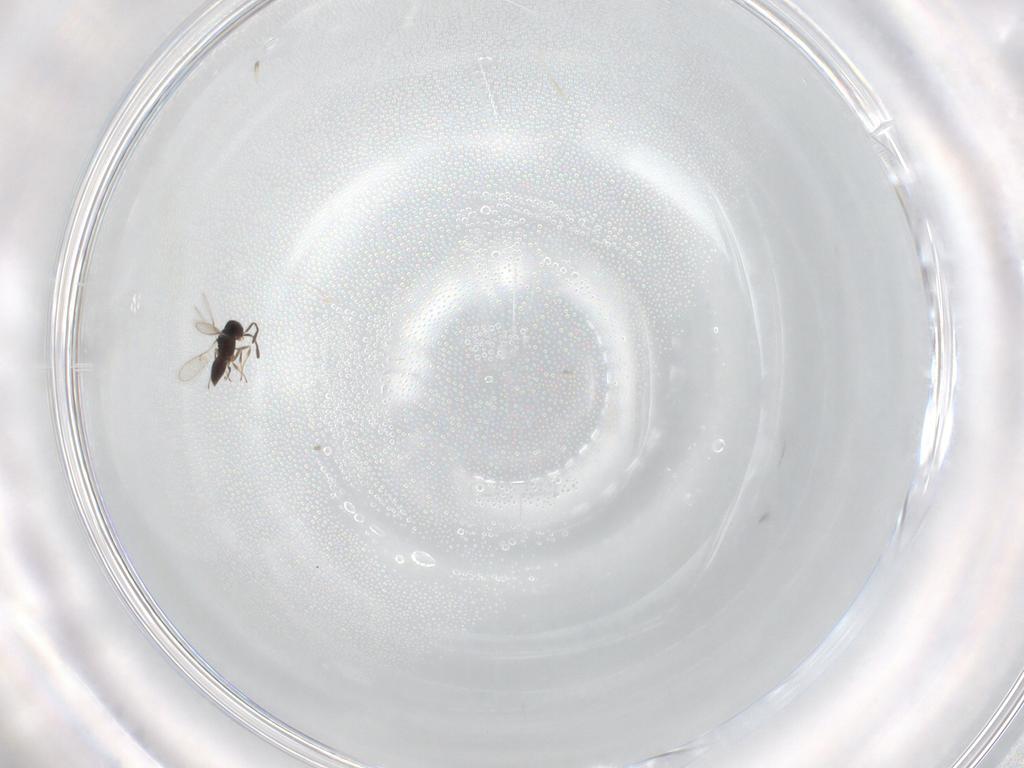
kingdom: Animalia
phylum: Arthropoda
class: Insecta
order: Hymenoptera
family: Scelionidae
